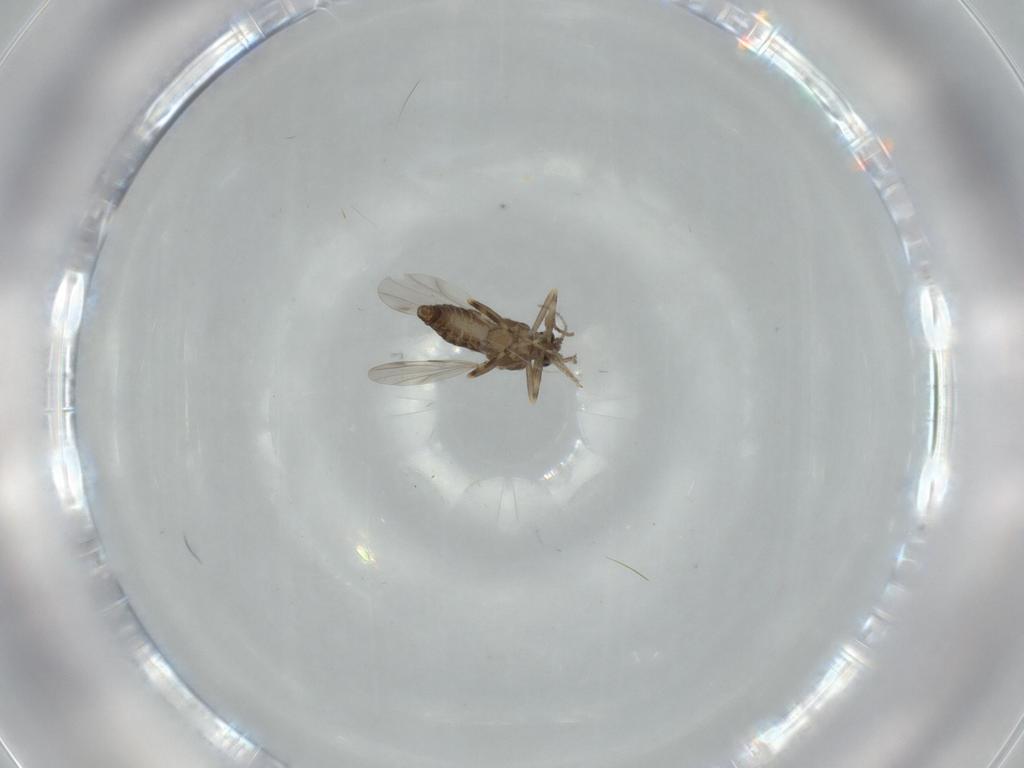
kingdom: Animalia
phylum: Arthropoda
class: Insecta
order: Diptera
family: Ceratopogonidae
